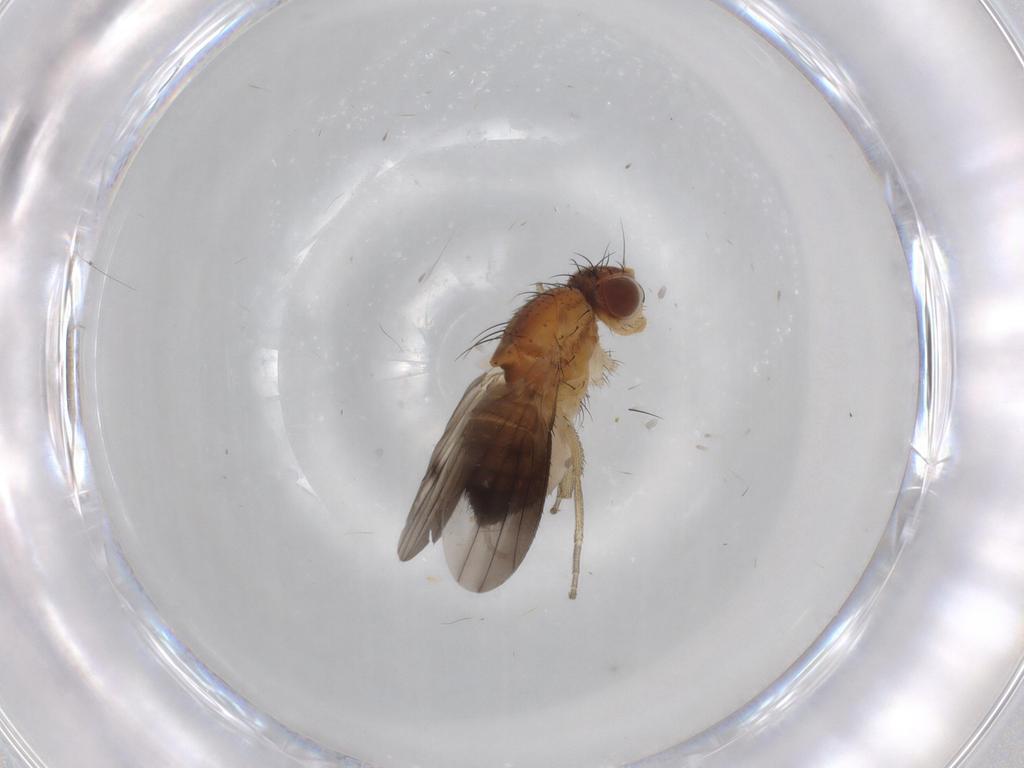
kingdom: Animalia
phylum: Arthropoda
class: Insecta
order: Diptera
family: Heleomyzidae
